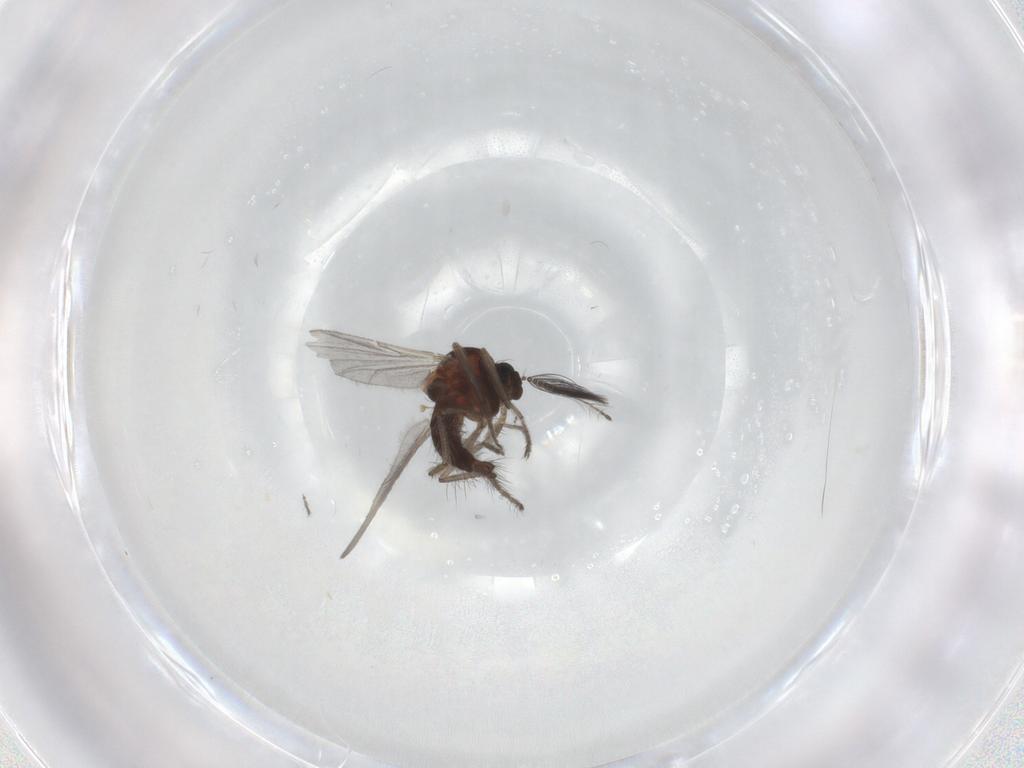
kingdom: Animalia
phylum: Arthropoda
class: Insecta
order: Diptera
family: Ceratopogonidae
